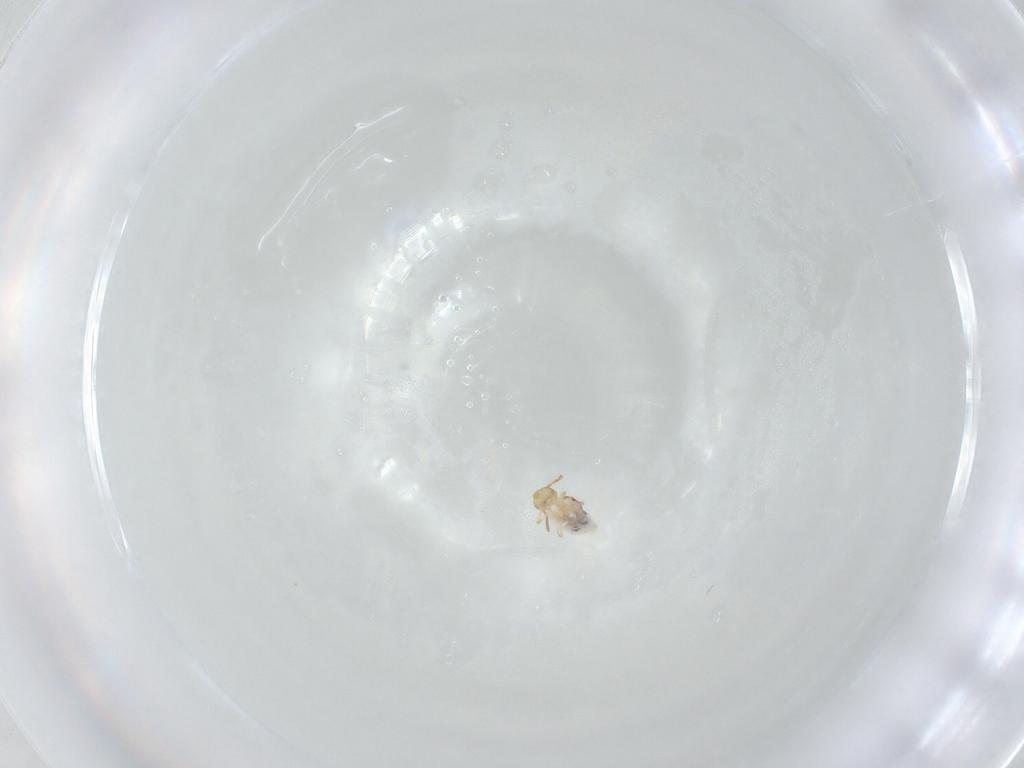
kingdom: Animalia
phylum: Arthropoda
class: Collembola
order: Symphypleona
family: Bourletiellidae
